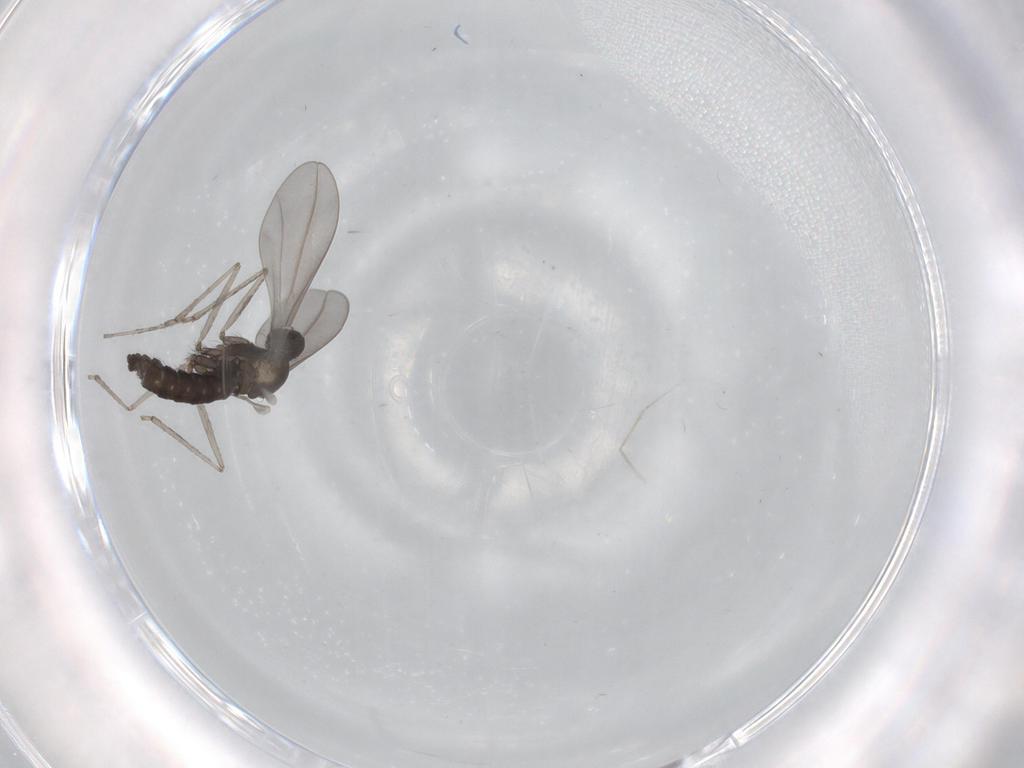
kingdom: Animalia
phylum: Arthropoda
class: Insecta
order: Diptera
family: Cecidomyiidae
